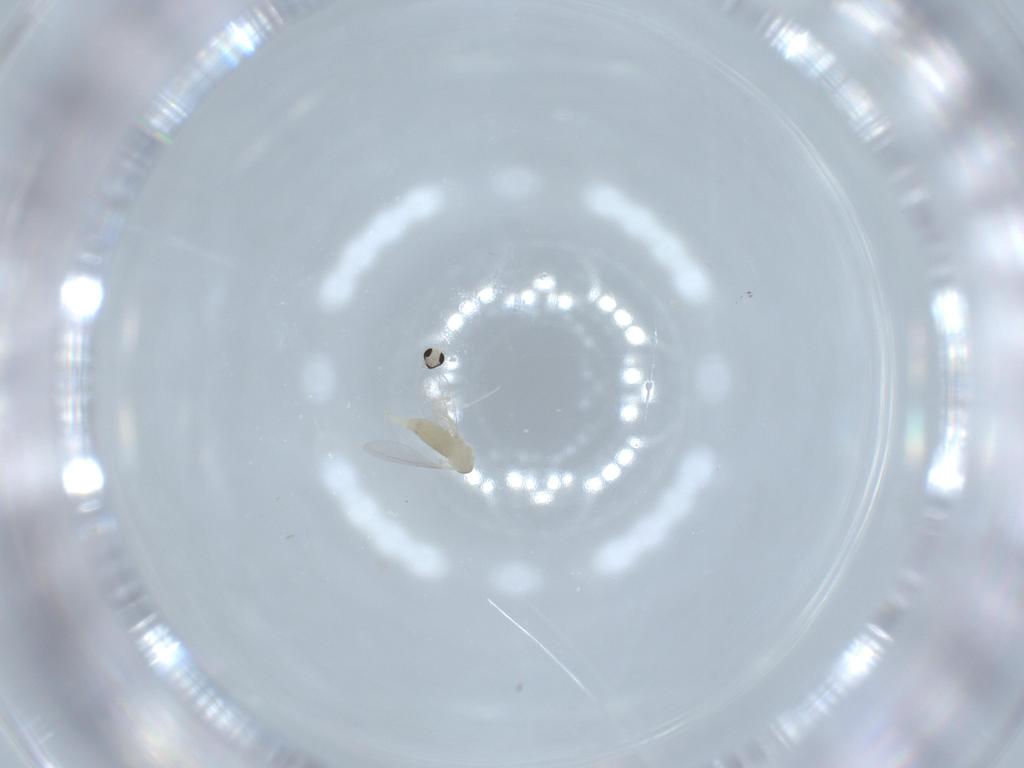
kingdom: Animalia
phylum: Arthropoda
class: Insecta
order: Diptera
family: Cecidomyiidae
